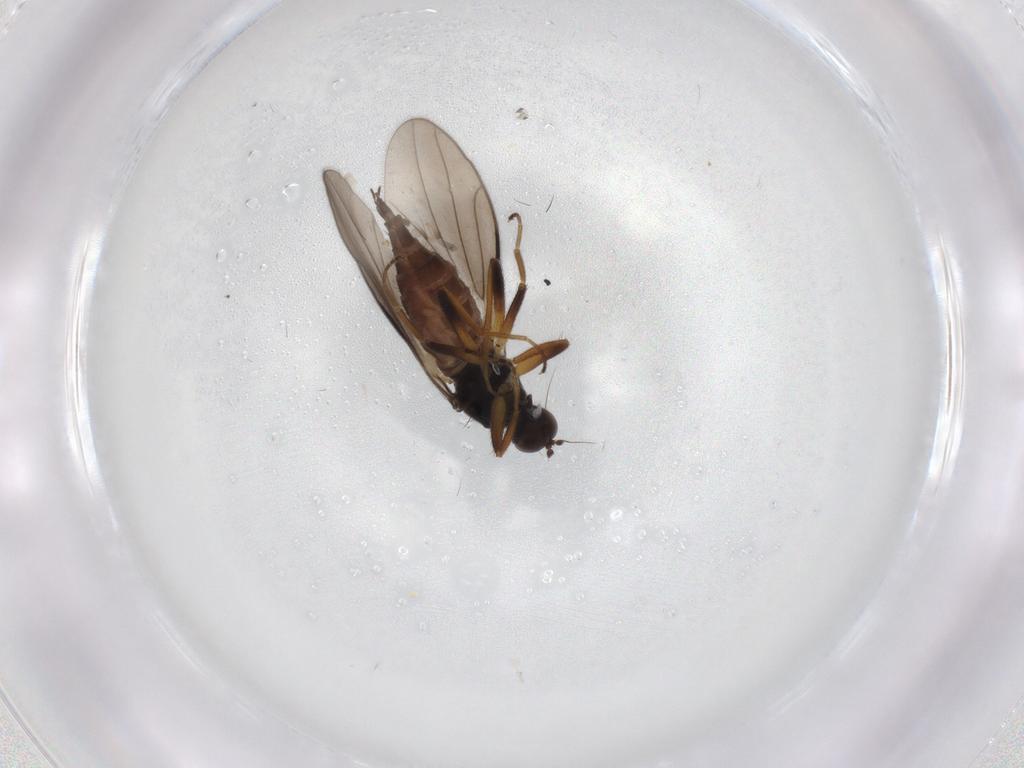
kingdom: Animalia
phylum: Arthropoda
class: Insecta
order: Diptera
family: Hybotidae
